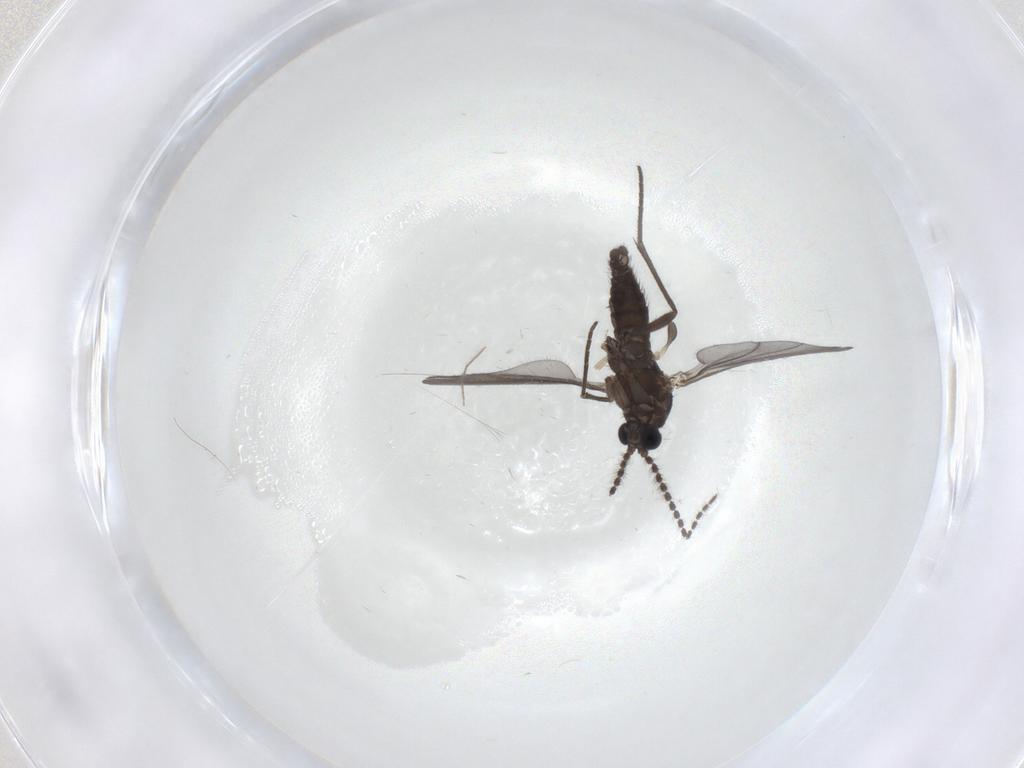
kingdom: Animalia
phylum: Arthropoda
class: Insecta
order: Diptera
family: Sciaridae
